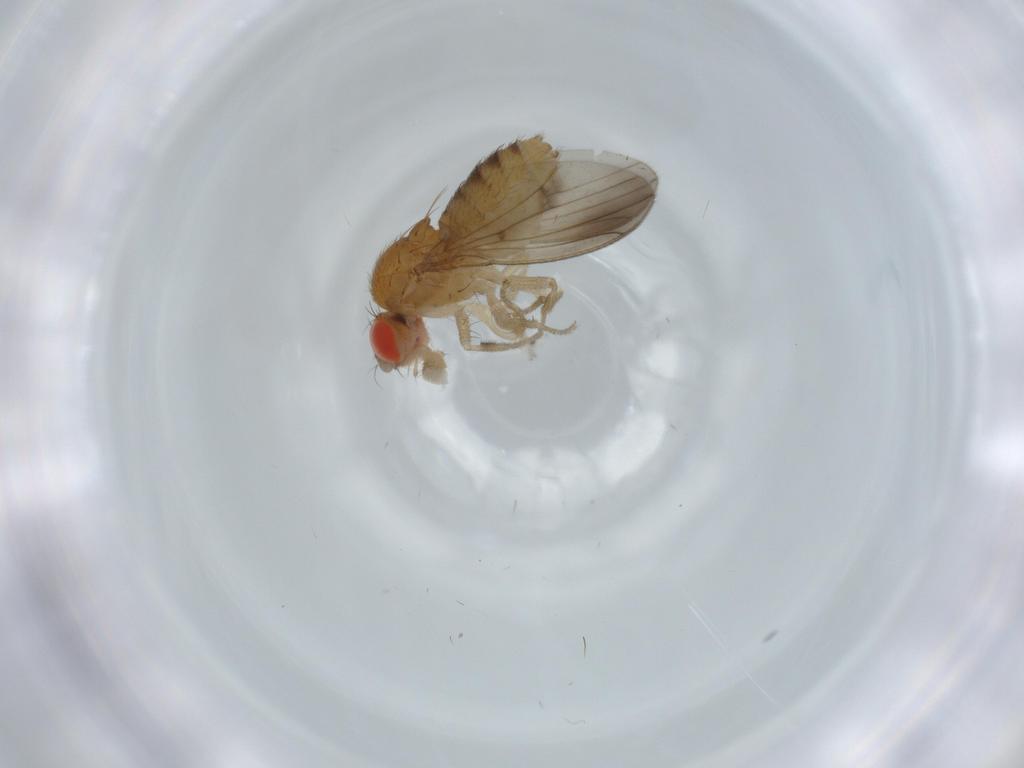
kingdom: Animalia
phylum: Arthropoda
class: Insecta
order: Diptera
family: Drosophilidae
